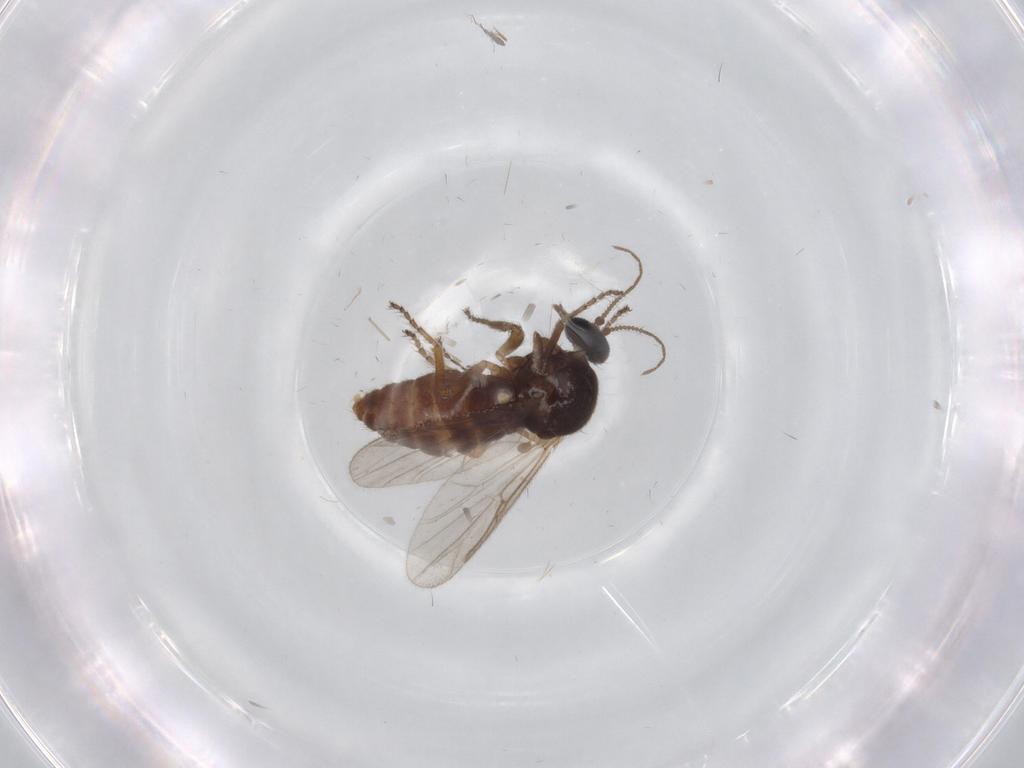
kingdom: Animalia
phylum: Arthropoda
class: Insecta
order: Diptera
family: Ceratopogonidae
